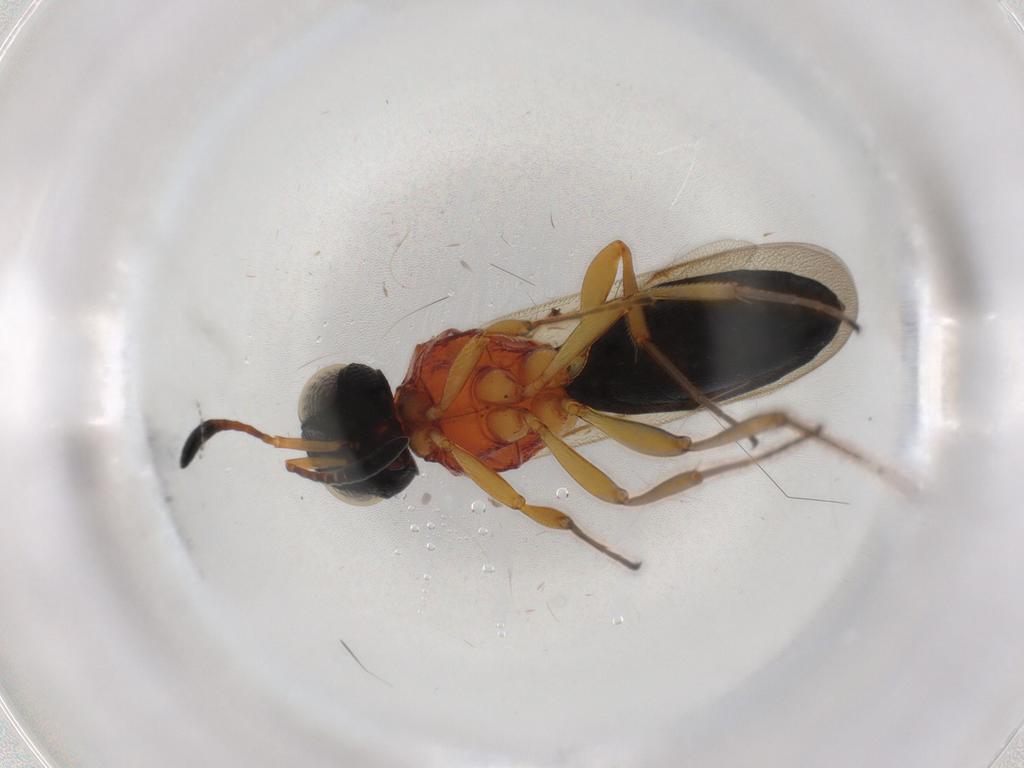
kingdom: Animalia
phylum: Arthropoda
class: Insecta
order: Hymenoptera
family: Scelionidae
